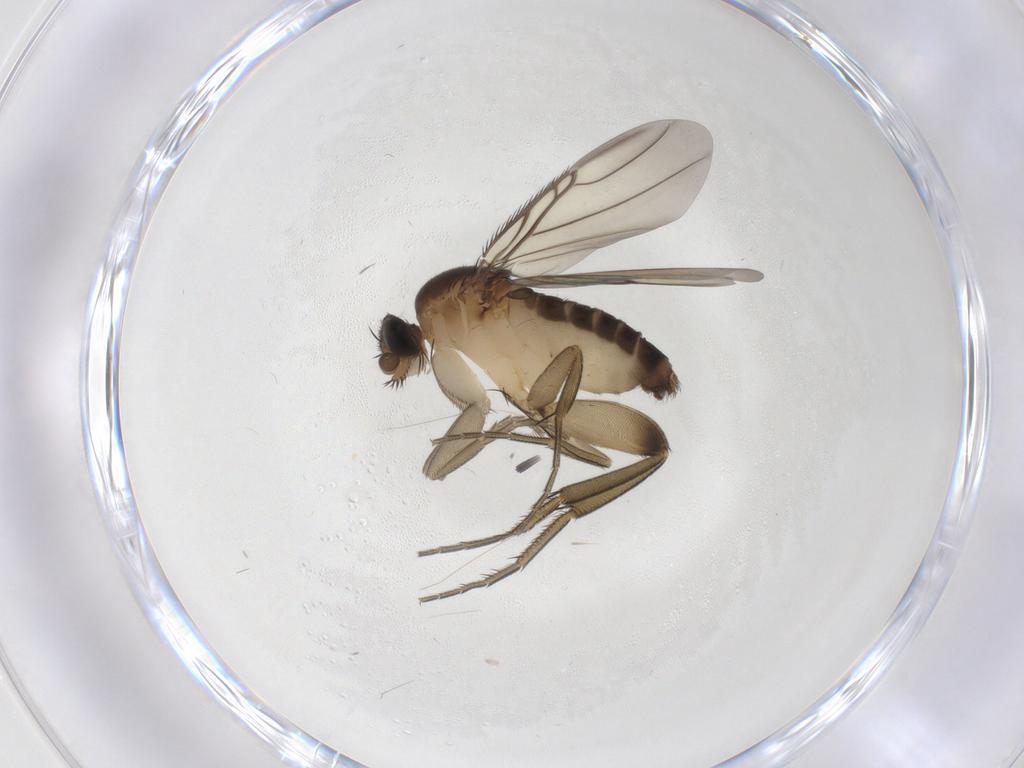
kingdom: Animalia
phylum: Arthropoda
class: Insecta
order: Diptera
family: Phoridae
